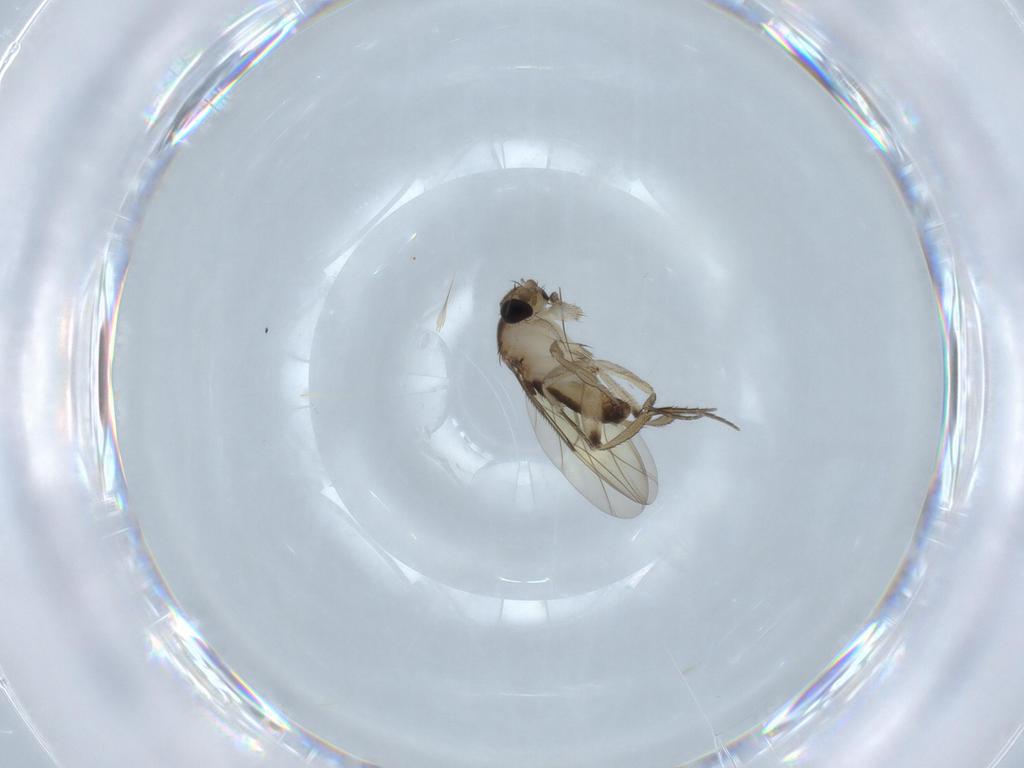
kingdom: Animalia
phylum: Arthropoda
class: Insecta
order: Diptera
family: Phoridae
